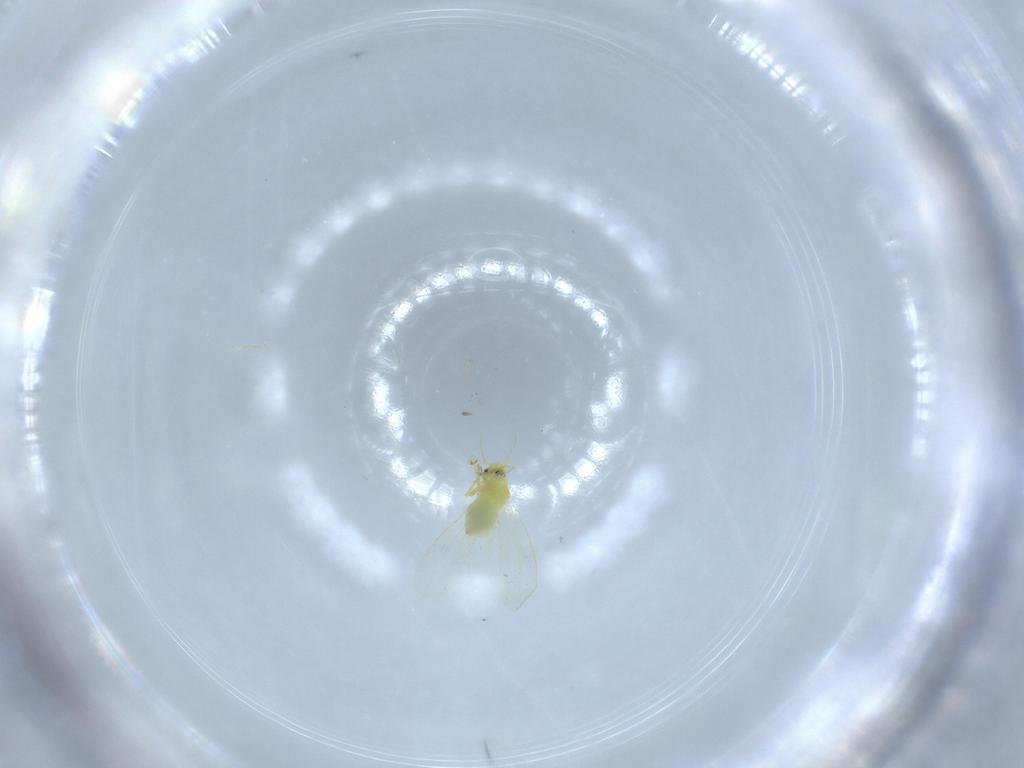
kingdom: Animalia
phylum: Arthropoda
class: Insecta
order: Hemiptera
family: Aleyrodidae
